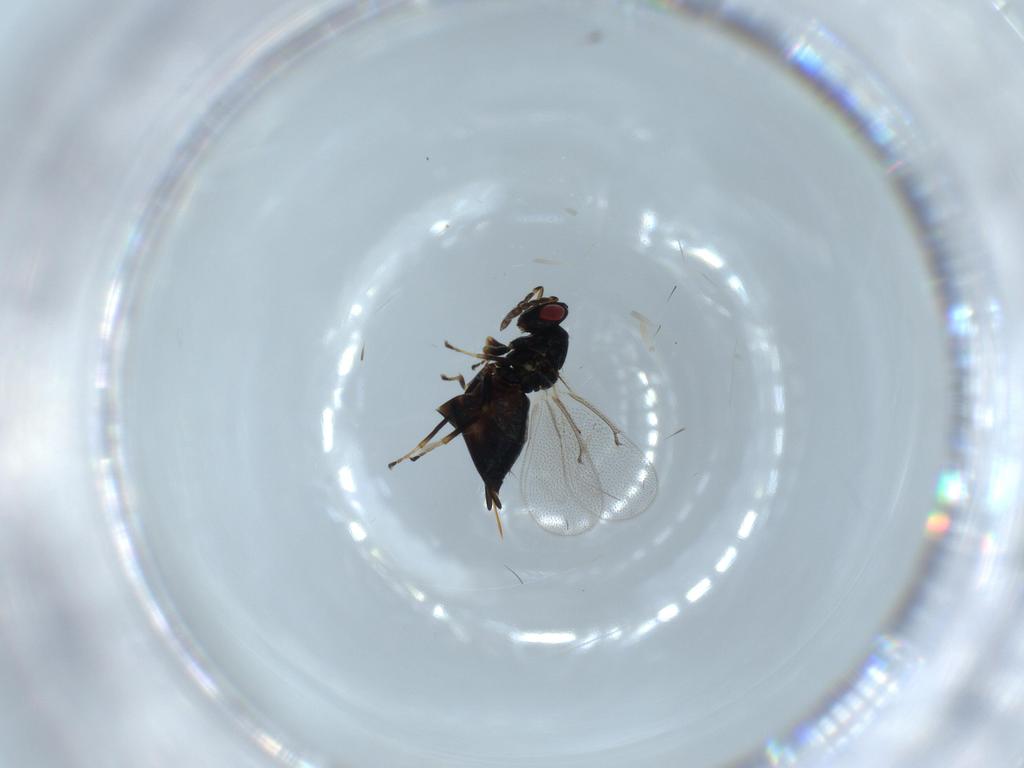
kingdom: Animalia
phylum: Arthropoda
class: Insecta
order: Hymenoptera
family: Eulophidae
